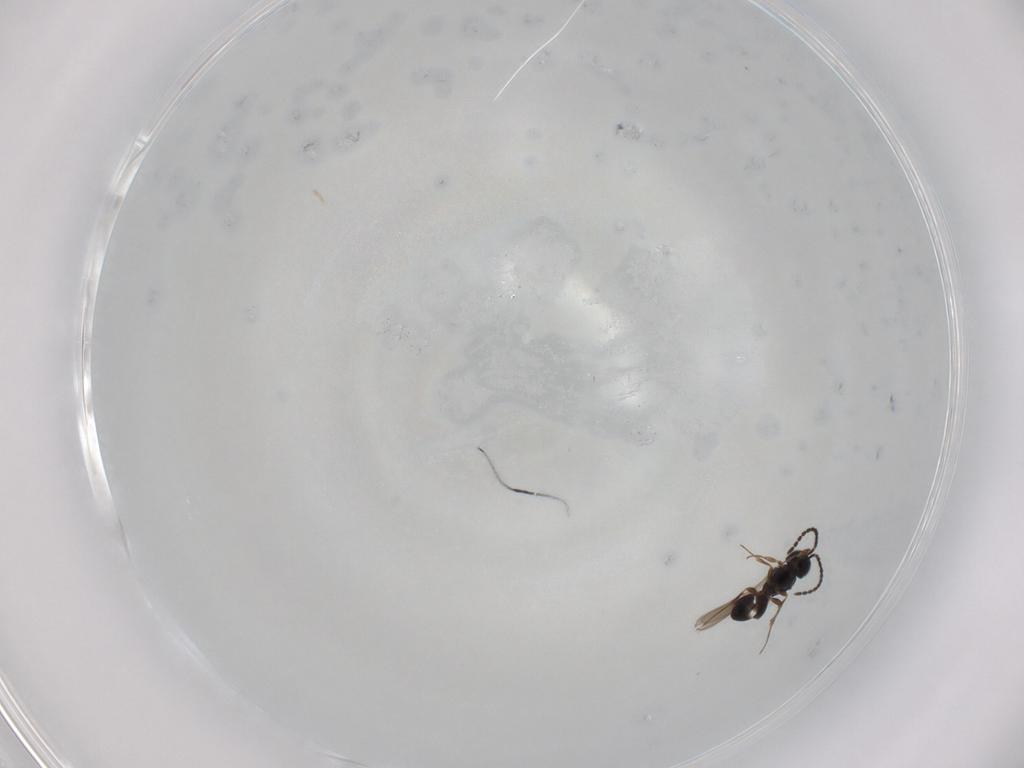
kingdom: Animalia
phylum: Arthropoda
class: Insecta
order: Hymenoptera
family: Scelionidae
